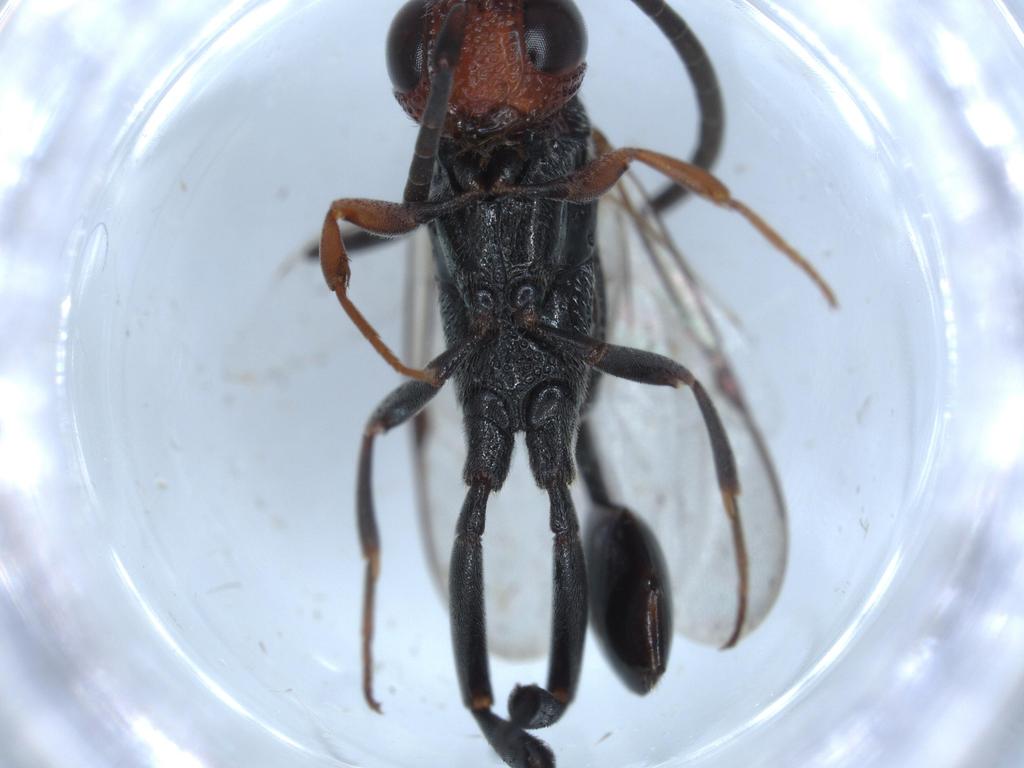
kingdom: Animalia
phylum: Arthropoda
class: Insecta
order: Hymenoptera
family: Evaniidae
